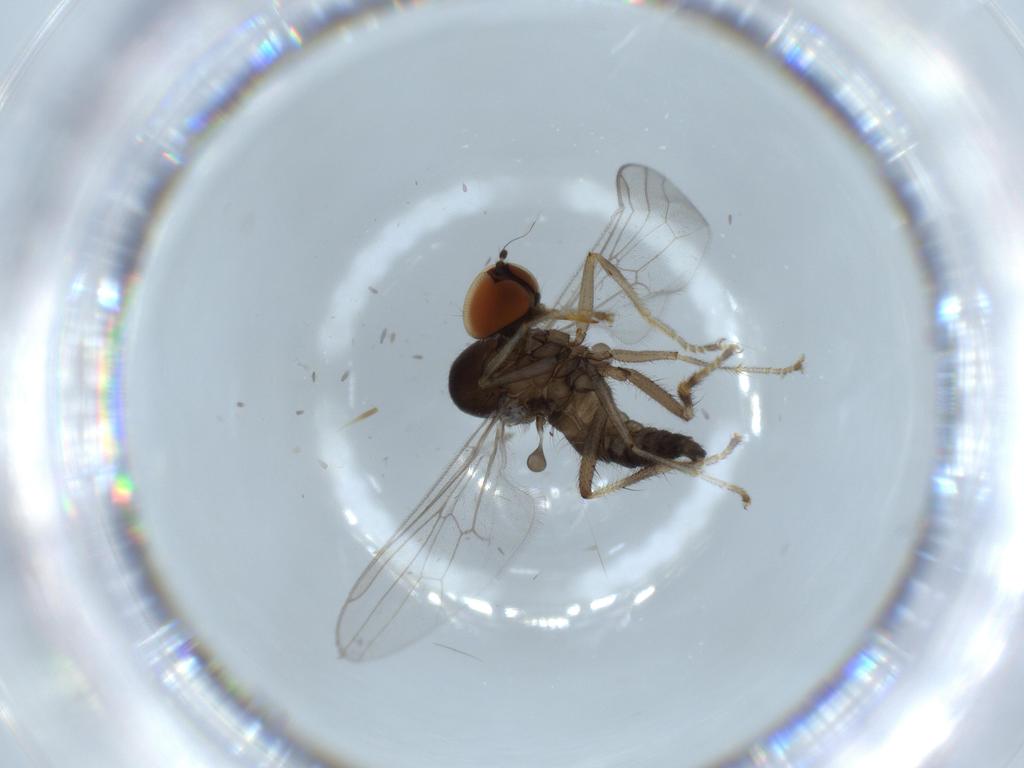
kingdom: Animalia
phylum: Arthropoda
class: Insecta
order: Diptera
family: Hybotidae
